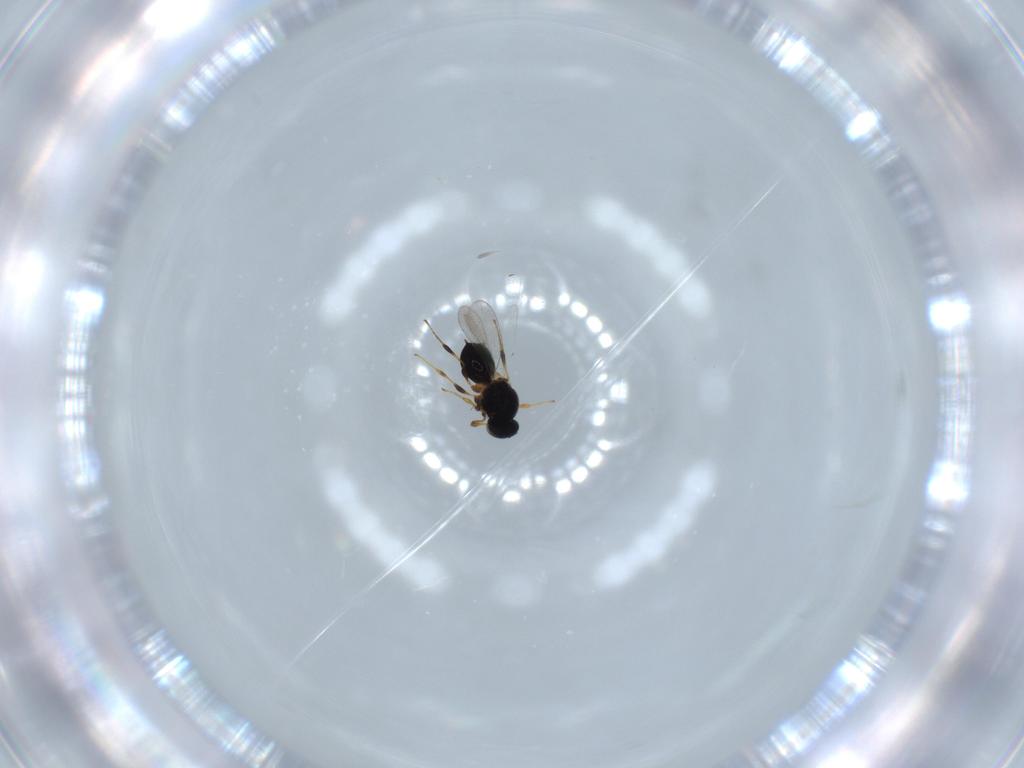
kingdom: Animalia
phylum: Arthropoda
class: Insecta
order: Hymenoptera
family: Platygastridae
